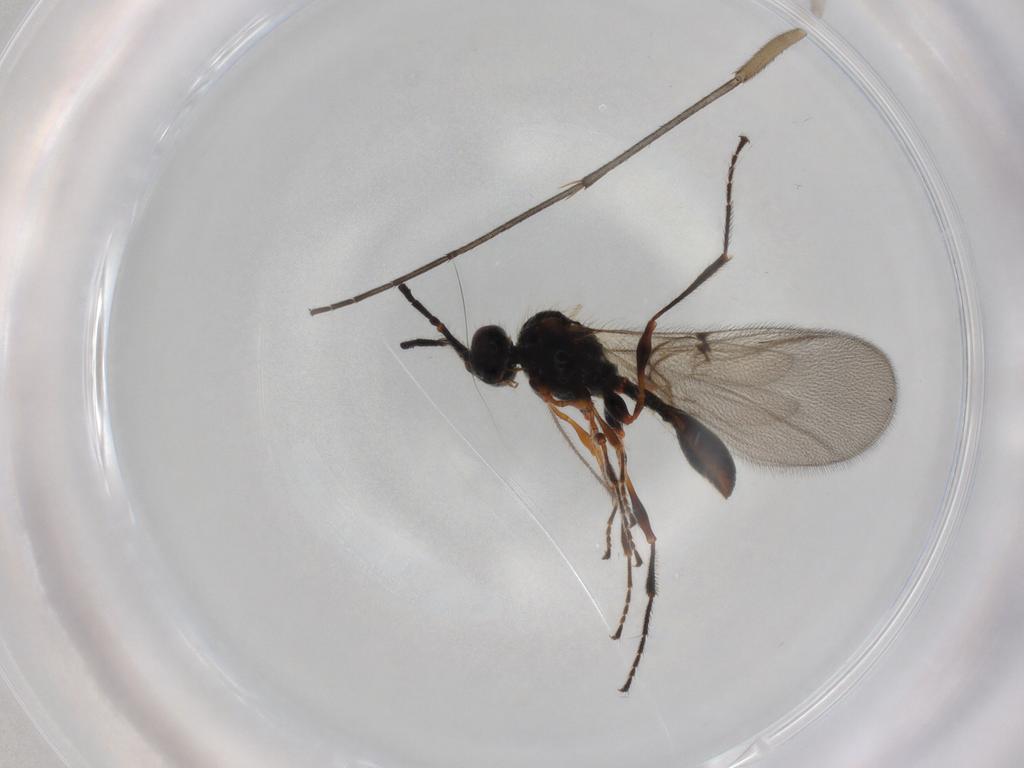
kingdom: Animalia
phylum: Arthropoda
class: Insecta
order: Hymenoptera
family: Diapriidae
